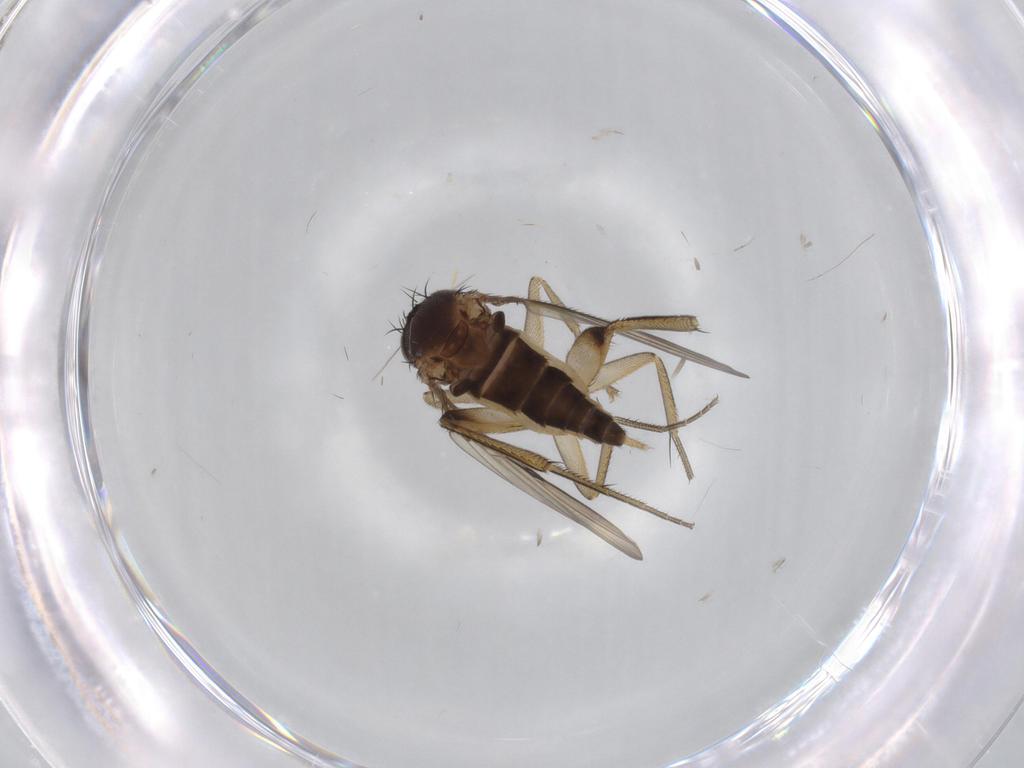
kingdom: Animalia
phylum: Arthropoda
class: Insecta
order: Diptera
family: Phoridae
